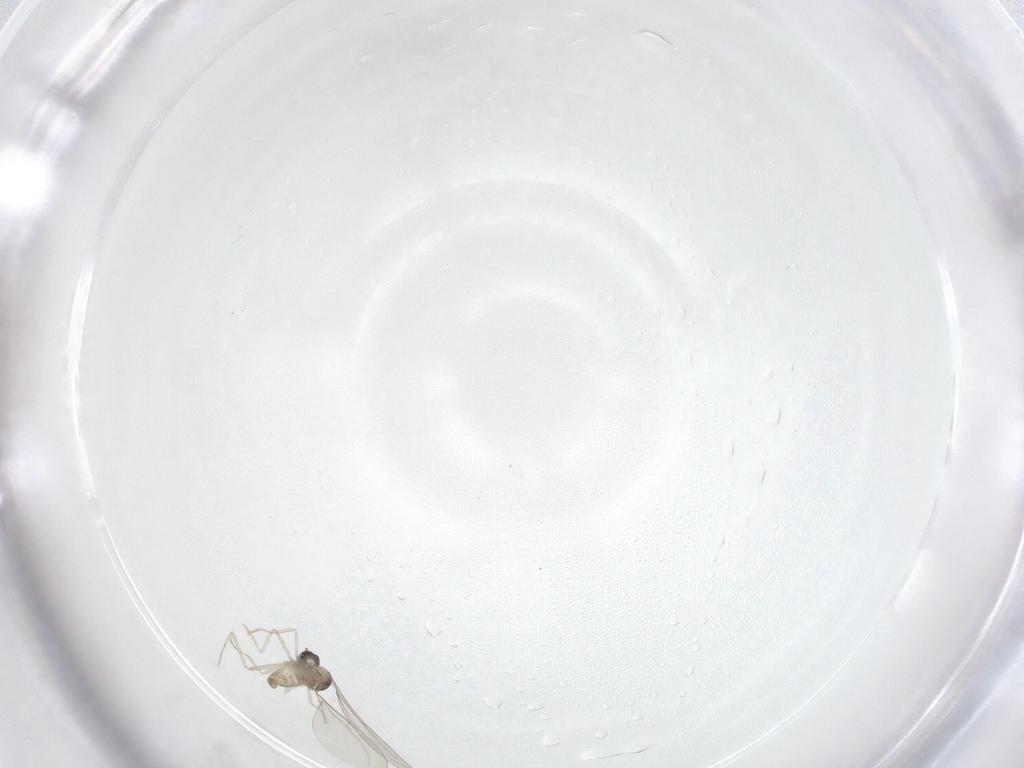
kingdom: Animalia
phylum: Arthropoda
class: Insecta
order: Diptera
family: Cecidomyiidae
